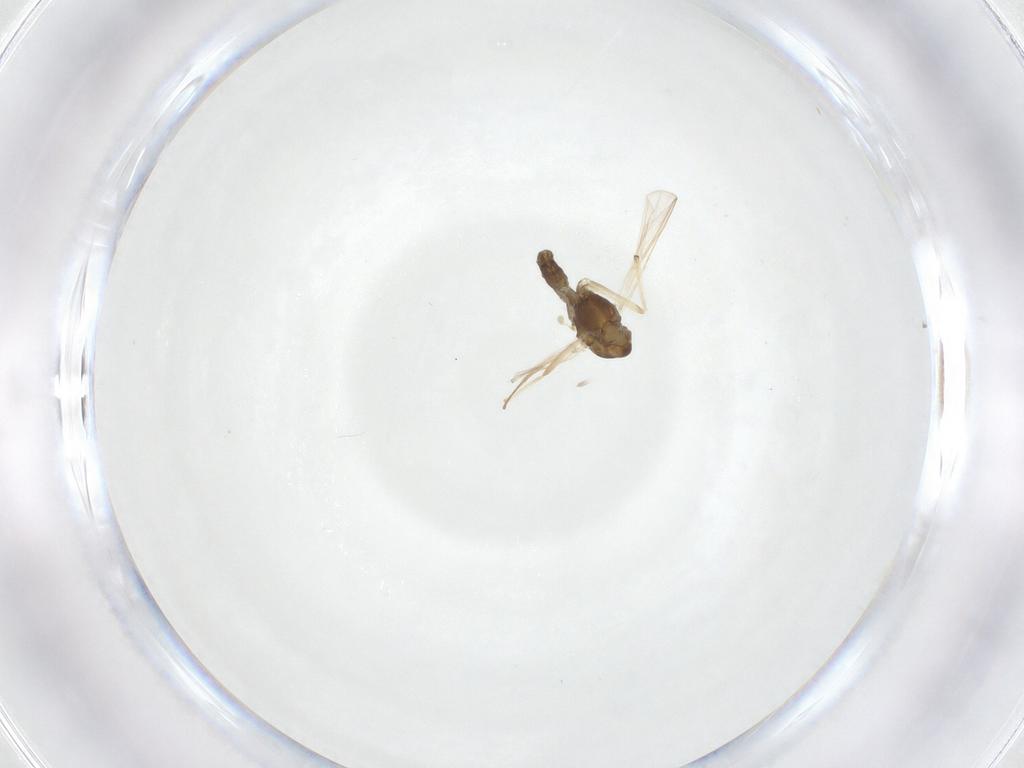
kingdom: Animalia
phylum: Arthropoda
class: Insecta
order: Diptera
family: Chironomidae
